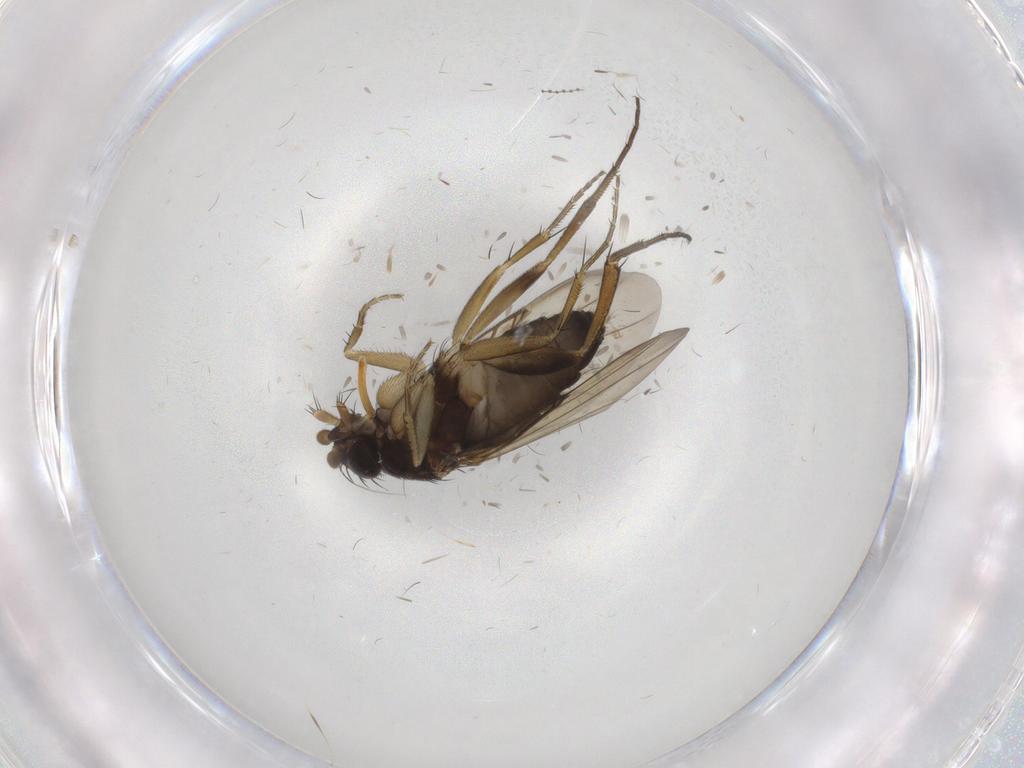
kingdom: Animalia
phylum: Arthropoda
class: Insecta
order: Diptera
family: Phoridae
